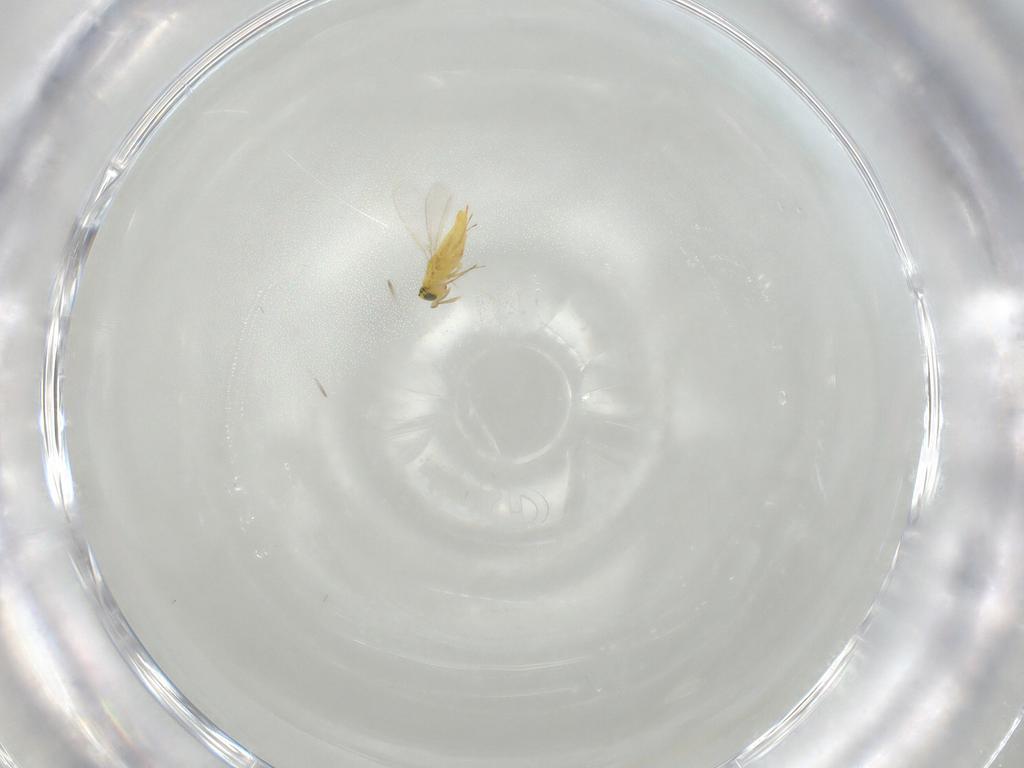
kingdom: Animalia
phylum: Arthropoda
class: Insecta
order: Hymenoptera
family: Aphelinidae
